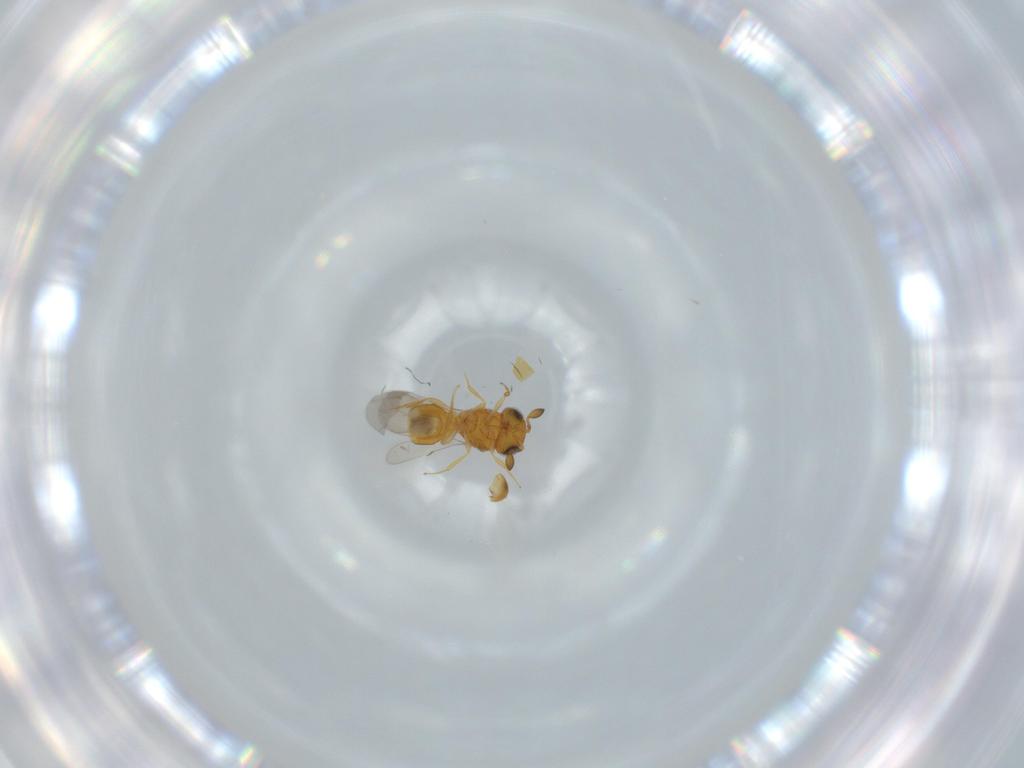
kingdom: Animalia
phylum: Arthropoda
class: Insecta
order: Hymenoptera
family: Scelionidae
